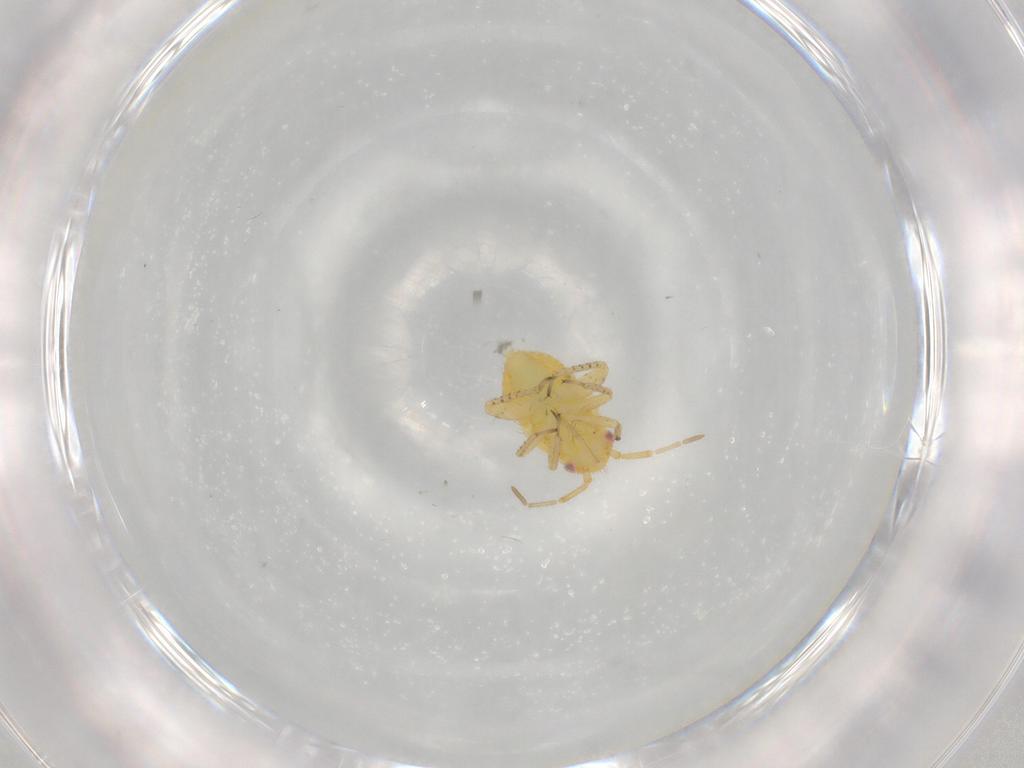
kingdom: Animalia
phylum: Arthropoda
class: Insecta
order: Hemiptera
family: Miridae
